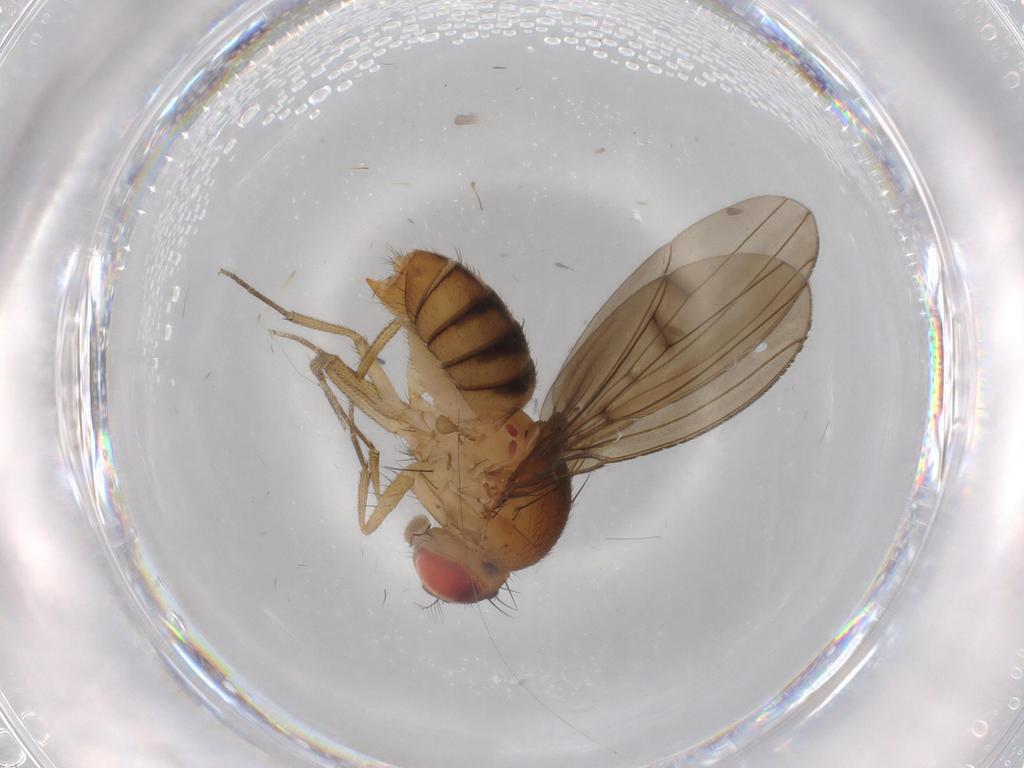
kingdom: Animalia
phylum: Arthropoda
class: Insecta
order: Diptera
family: Drosophilidae
